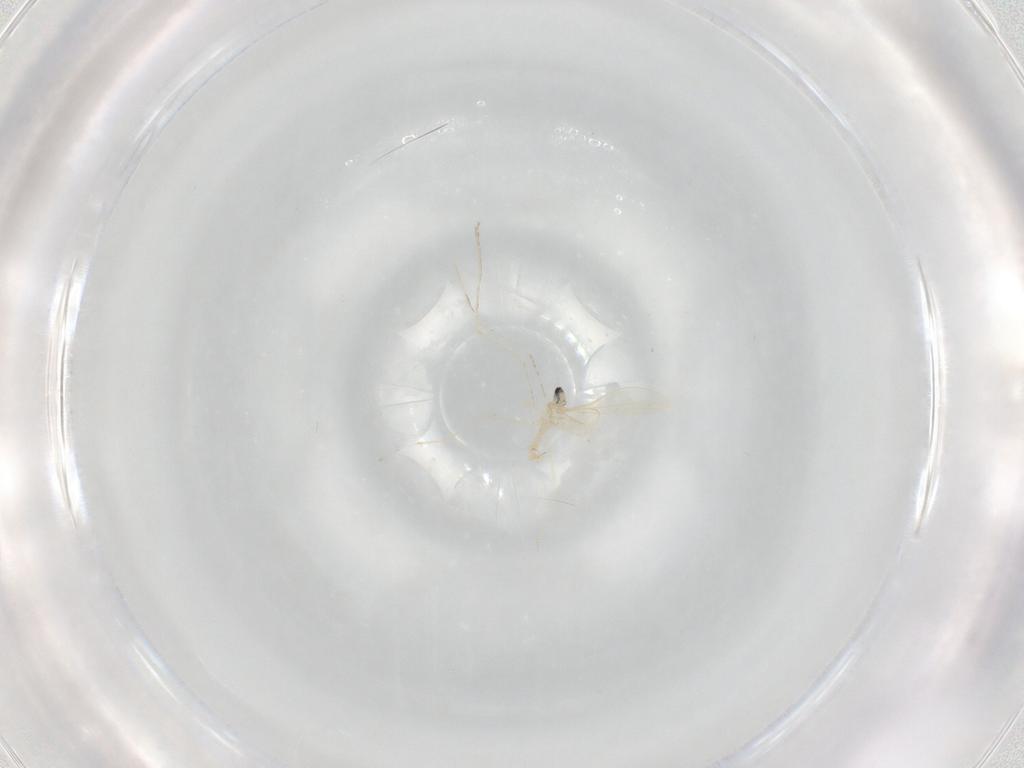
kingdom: Animalia
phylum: Arthropoda
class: Insecta
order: Diptera
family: Cecidomyiidae
